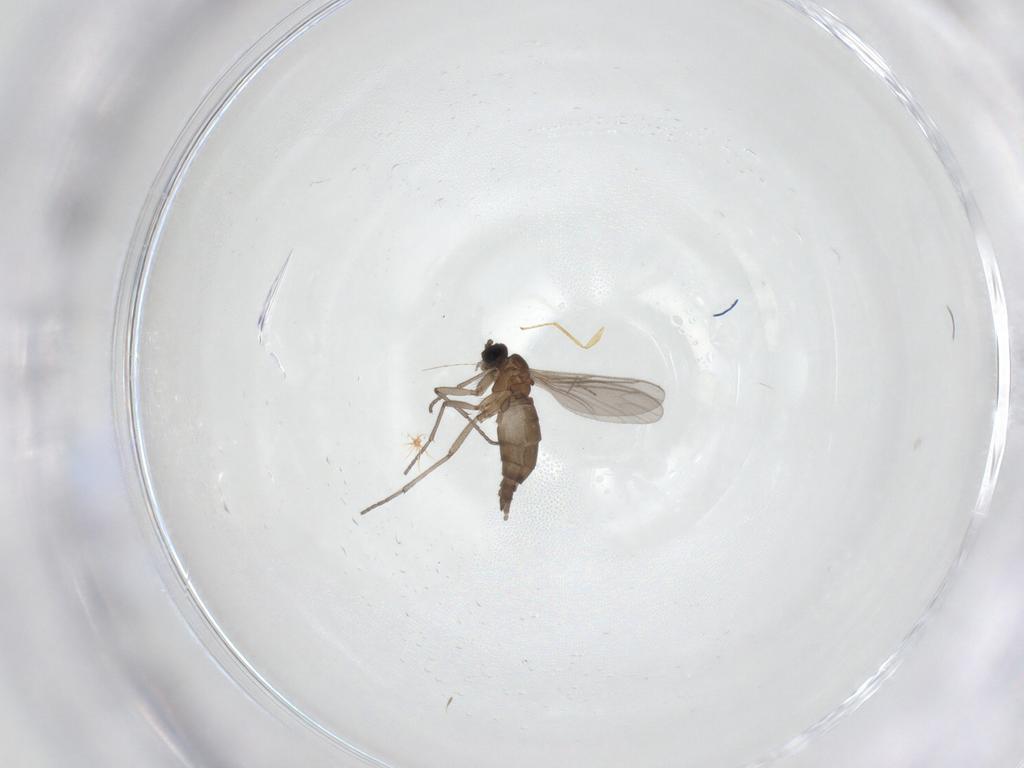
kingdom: Animalia
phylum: Arthropoda
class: Insecta
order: Diptera
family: Sciaridae
